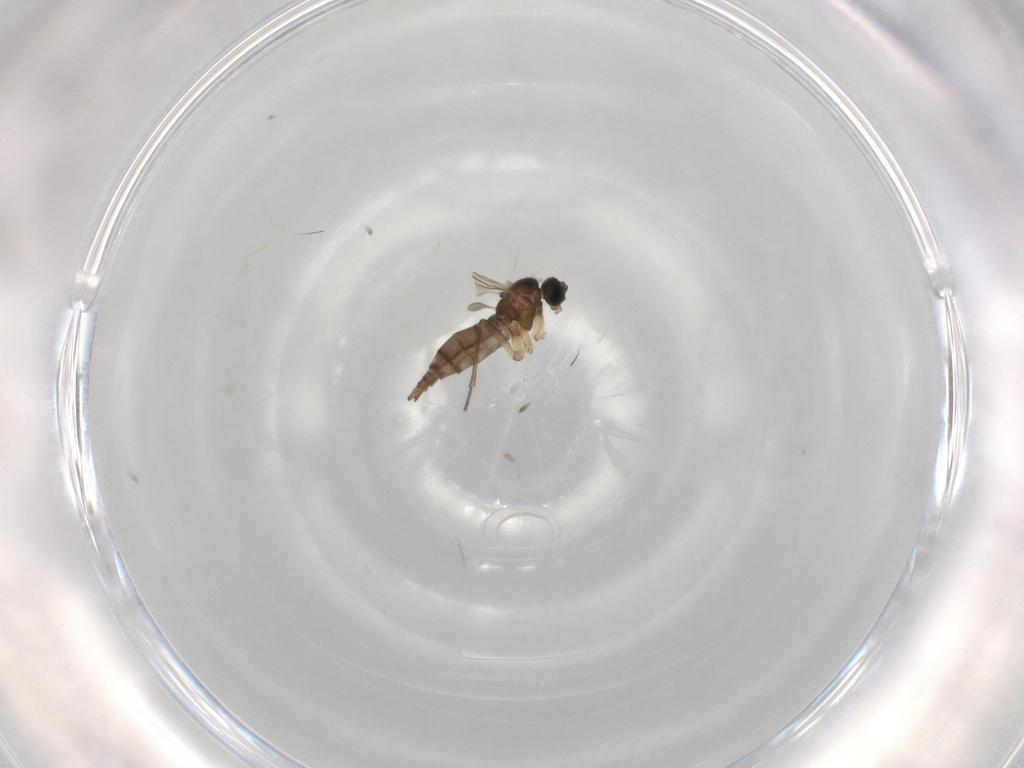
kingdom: Animalia
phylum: Arthropoda
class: Insecta
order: Diptera
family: Sciaridae
